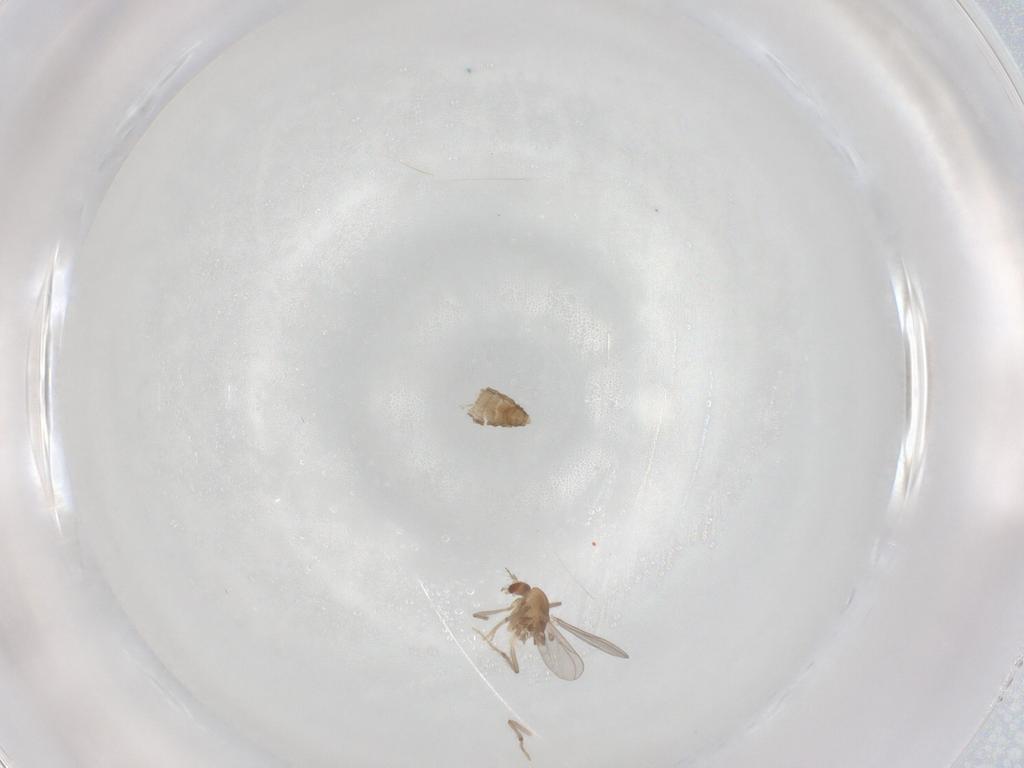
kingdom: Animalia
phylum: Arthropoda
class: Insecta
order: Diptera
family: Chironomidae
